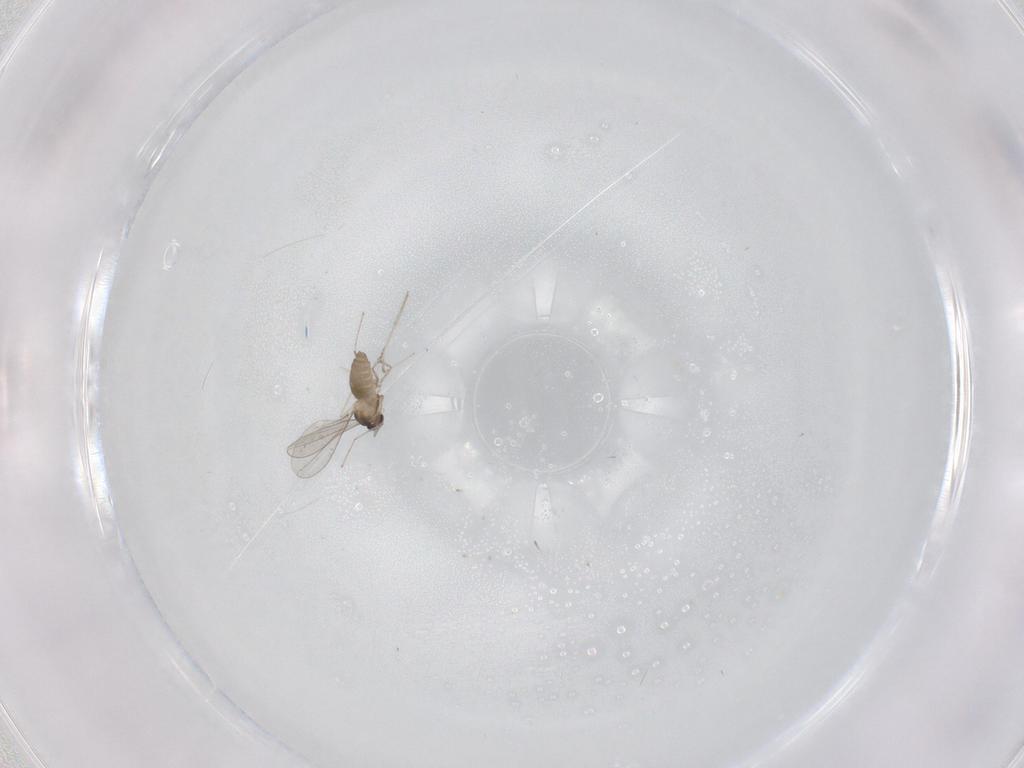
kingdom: Animalia
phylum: Arthropoda
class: Insecta
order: Diptera
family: Cecidomyiidae
